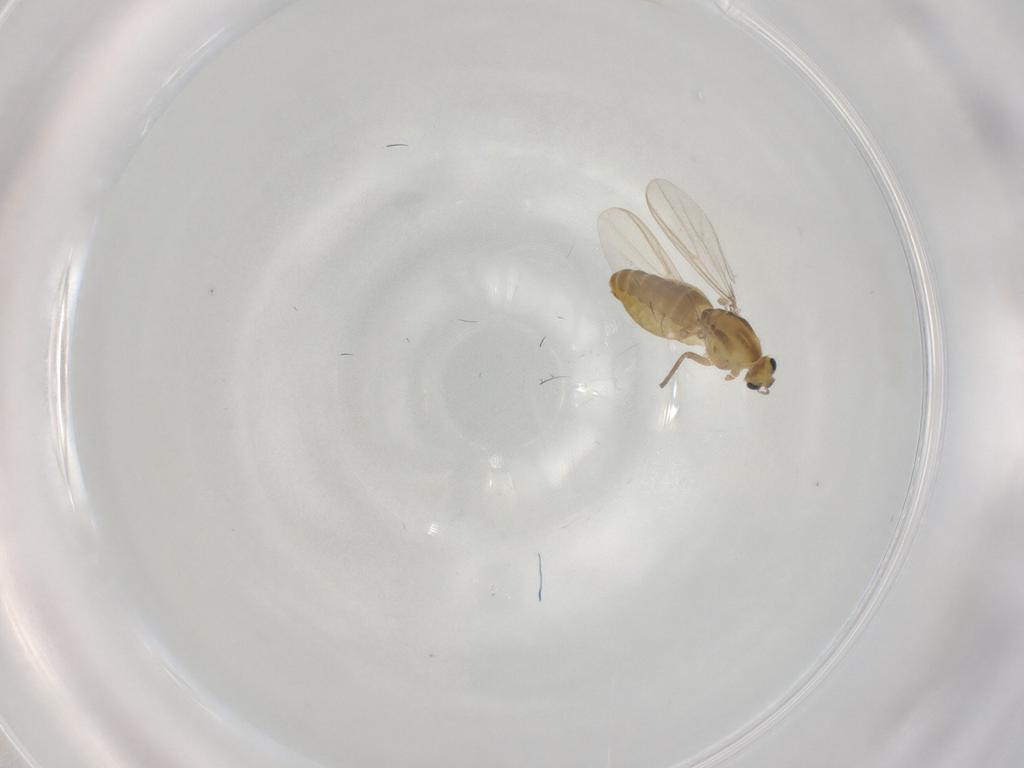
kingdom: Animalia
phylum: Arthropoda
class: Insecta
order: Diptera
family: Chironomidae
